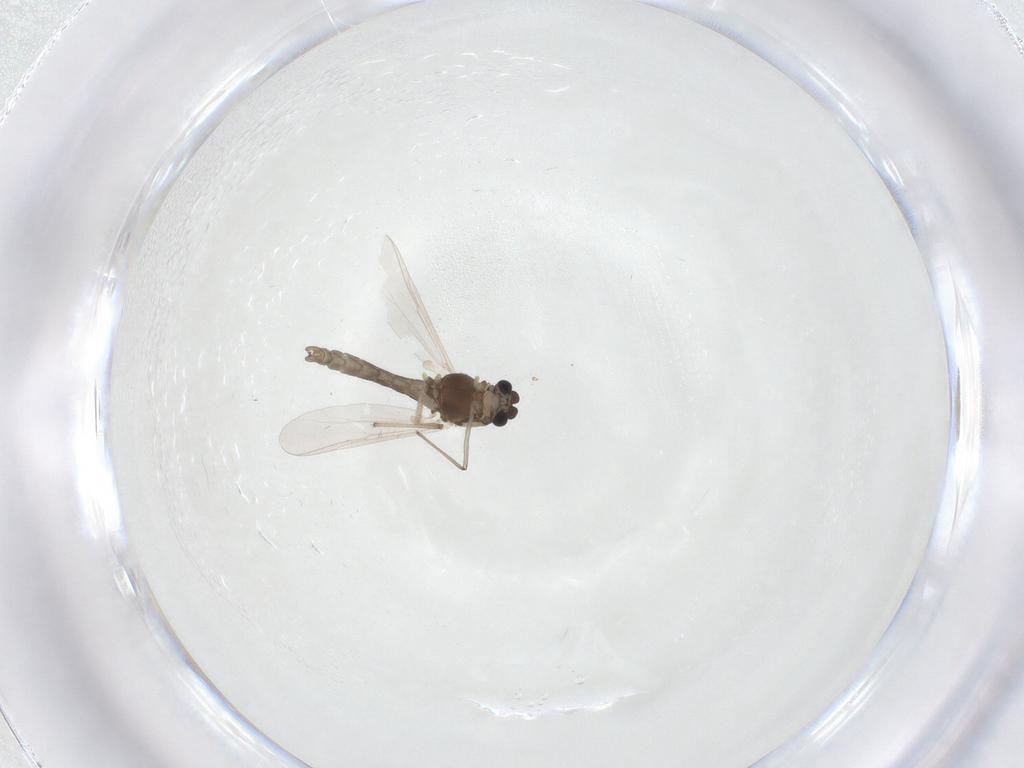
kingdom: Animalia
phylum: Arthropoda
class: Insecta
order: Diptera
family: Chironomidae
